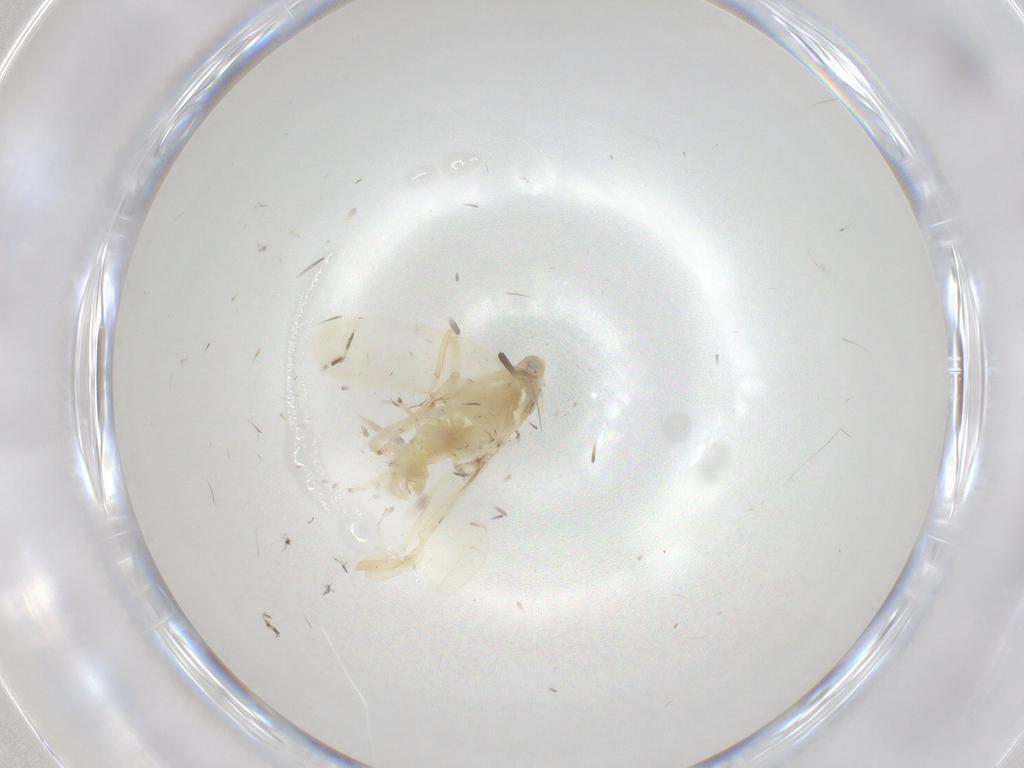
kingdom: Animalia
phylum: Arthropoda
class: Insecta
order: Hemiptera
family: Cicadellidae
